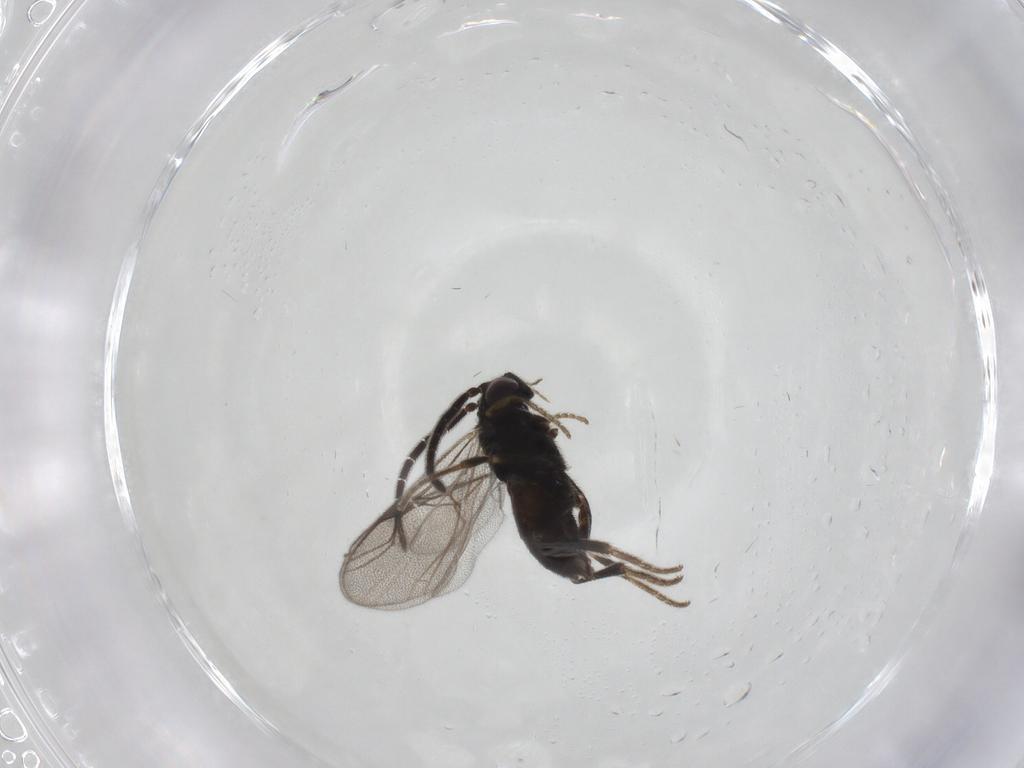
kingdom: Animalia
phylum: Arthropoda
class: Insecta
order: Hymenoptera
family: Dryinidae
